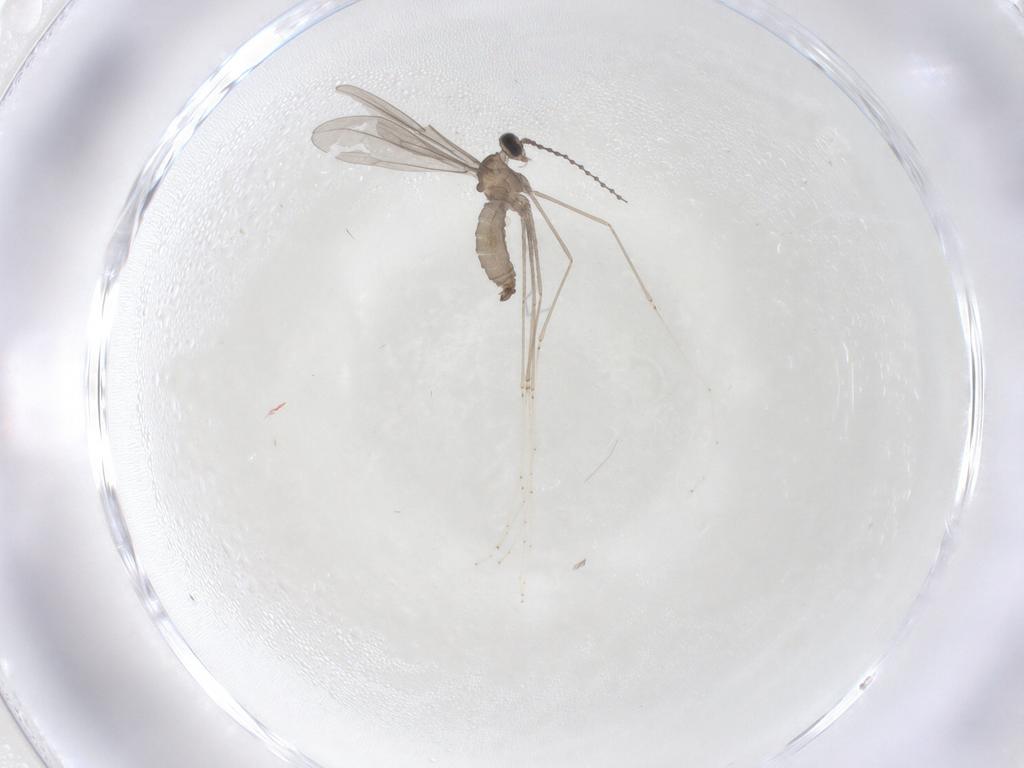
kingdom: Animalia
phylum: Arthropoda
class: Insecta
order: Diptera
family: Cecidomyiidae
